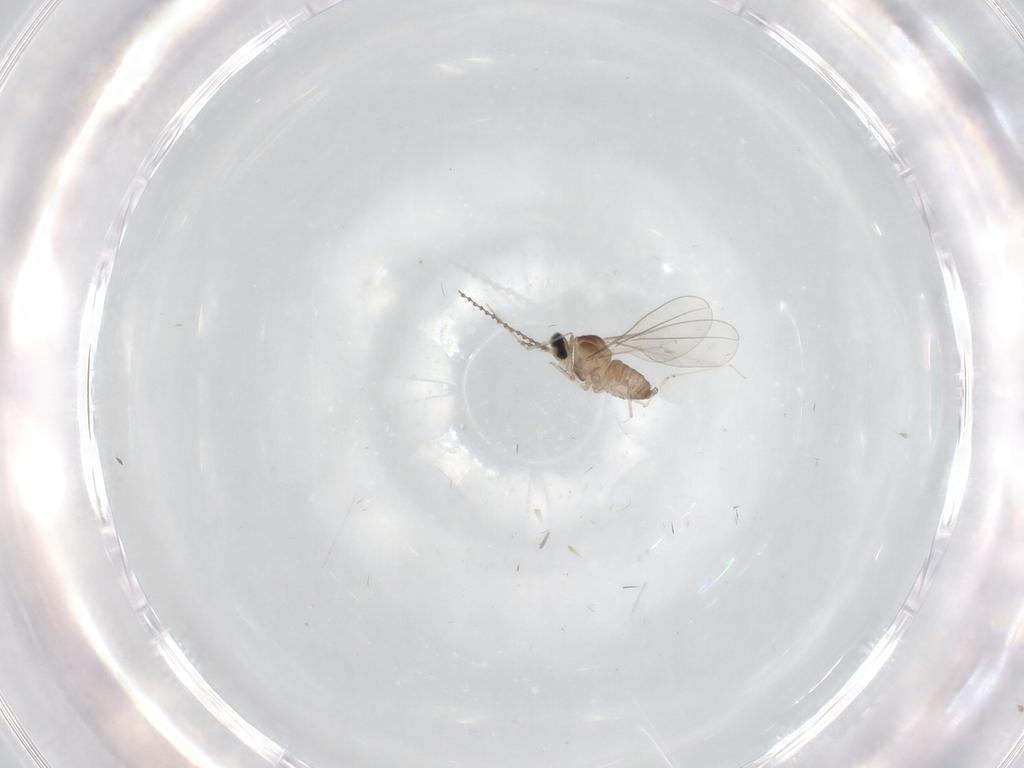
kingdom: Animalia
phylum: Arthropoda
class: Insecta
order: Diptera
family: Cecidomyiidae
